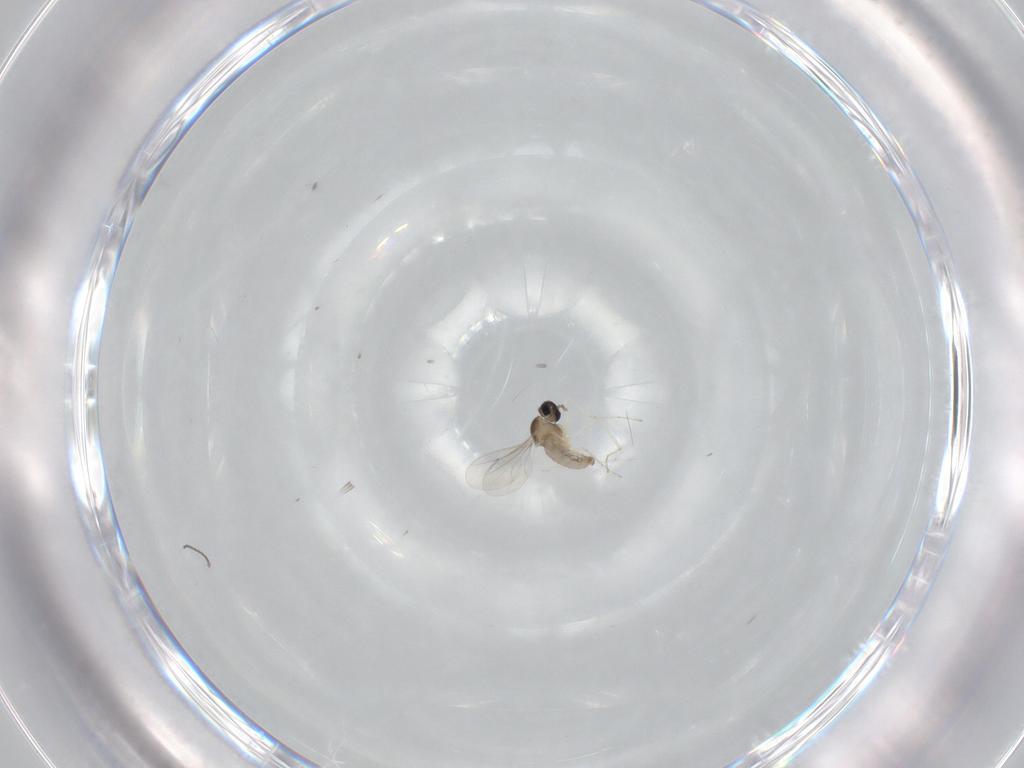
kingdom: Animalia
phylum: Arthropoda
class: Insecta
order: Diptera
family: Cecidomyiidae
